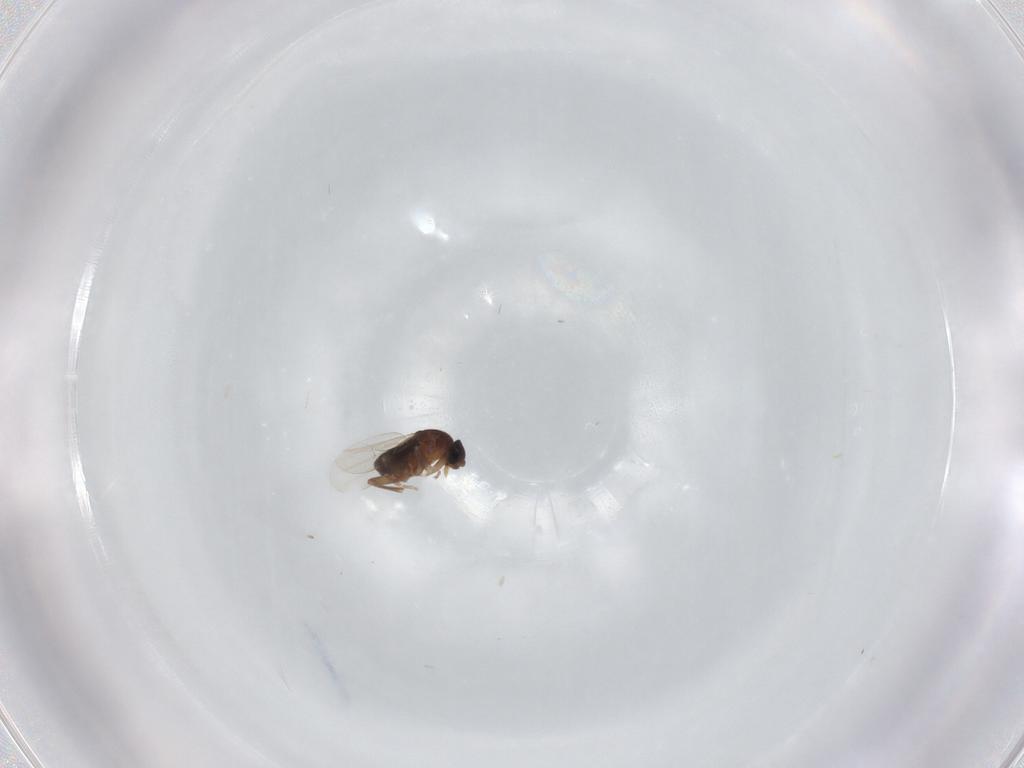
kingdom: Animalia
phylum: Arthropoda
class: Insecta
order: Diptera
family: Phoridae
